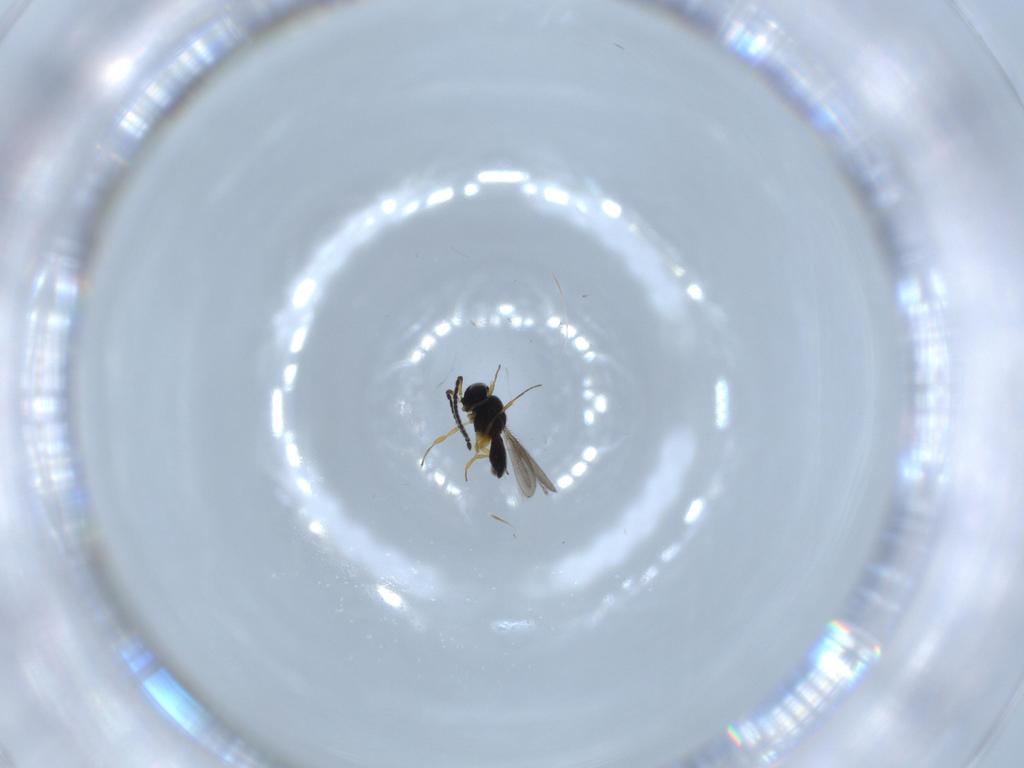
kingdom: Animalia
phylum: Arthropoda
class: Insecta
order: Hymenoptera
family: Scelionidae
